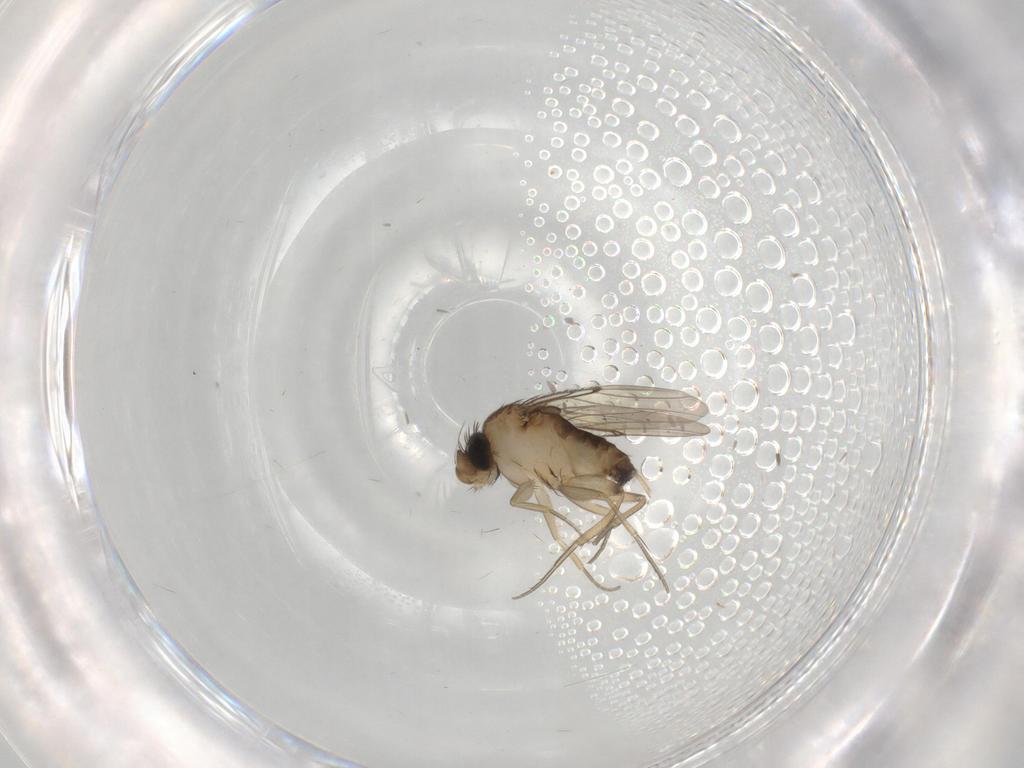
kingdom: Animalia
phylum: Arthropoda
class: Insecta
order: Diptera
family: Phoridae
